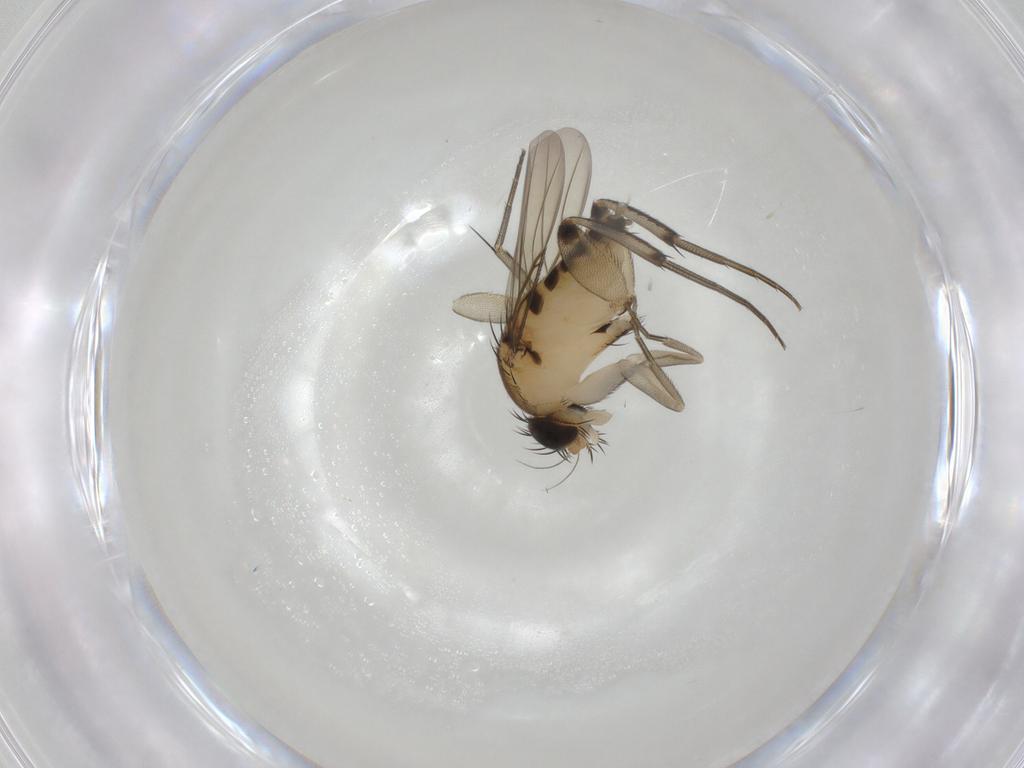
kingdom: Animalia
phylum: Arthropoda
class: Insecta
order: Diptera
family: Phoridae
